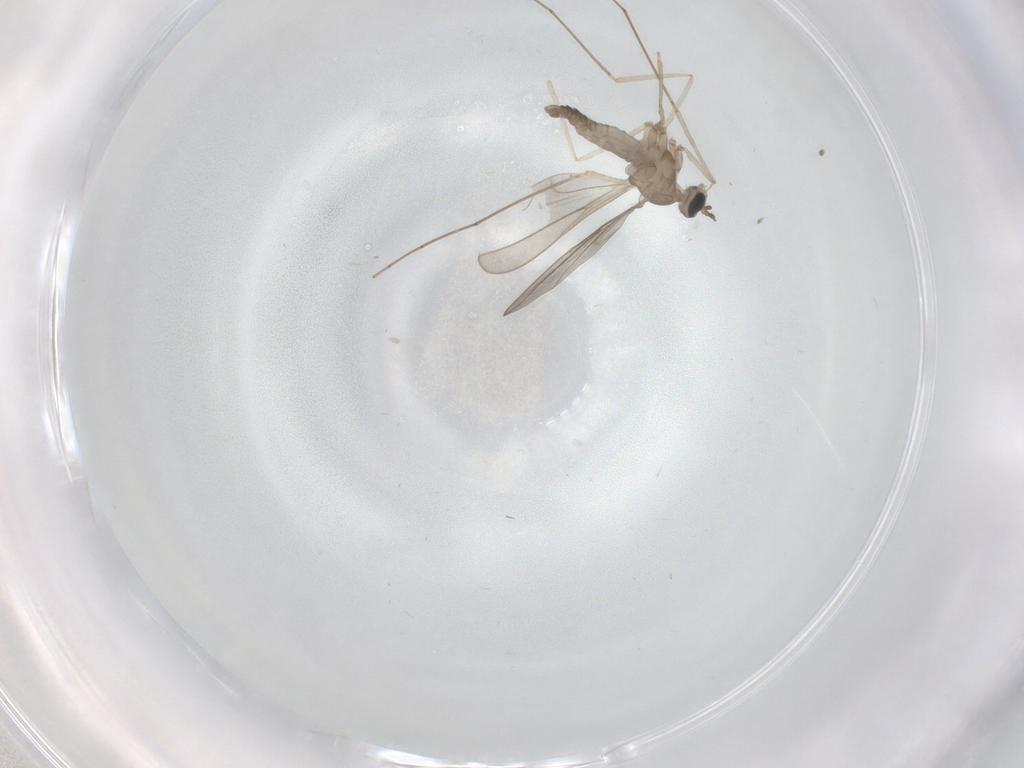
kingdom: Animalia
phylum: Arthropoda
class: Insecta
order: Diptera
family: Cecidomyiidae
